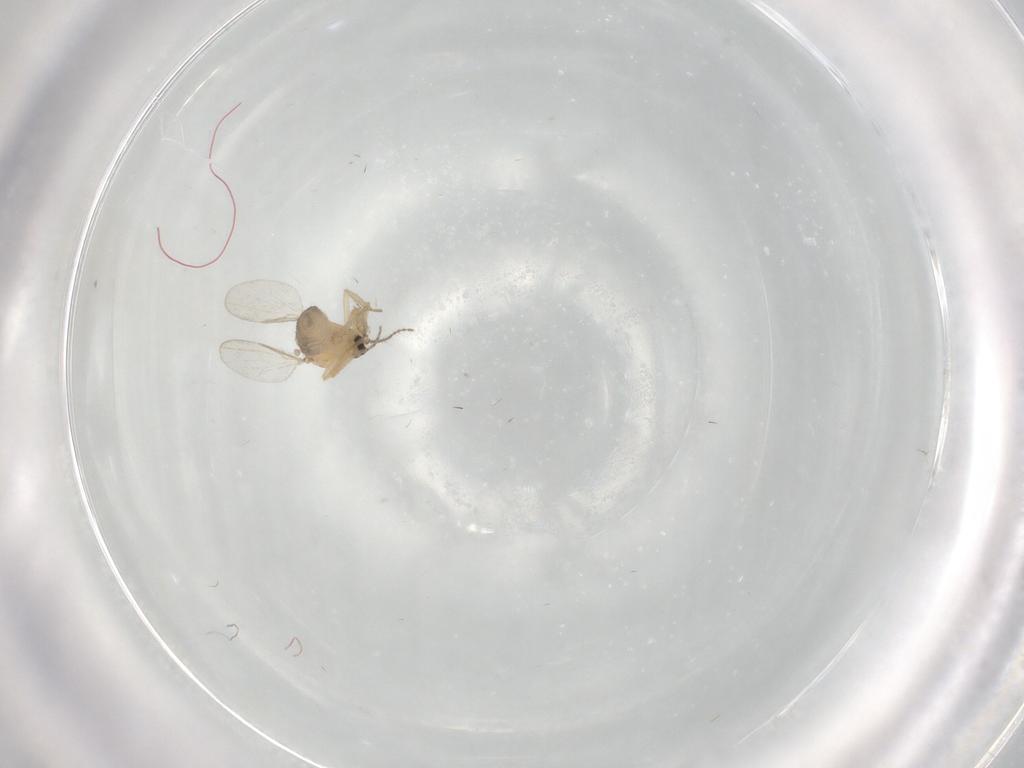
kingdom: Animalia
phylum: Arthropoda
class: Insecta
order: Diptera
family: Ceratopogonidae
